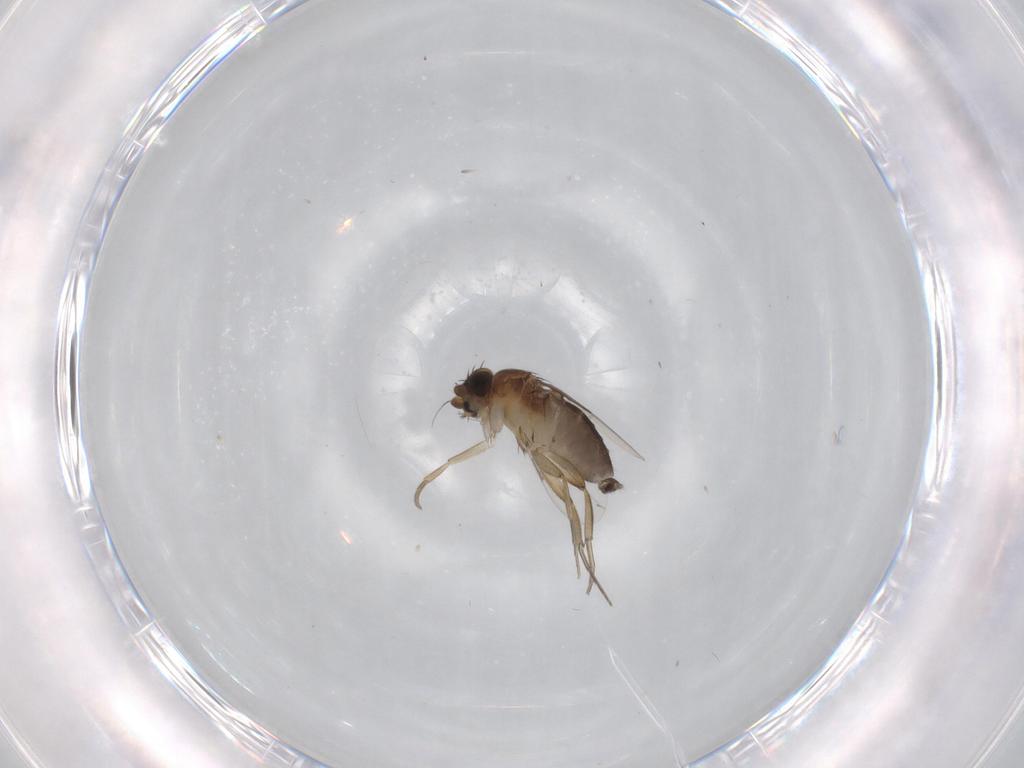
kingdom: Animalia
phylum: Arthropoda
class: Insecta
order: Diptera
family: Phoridae
